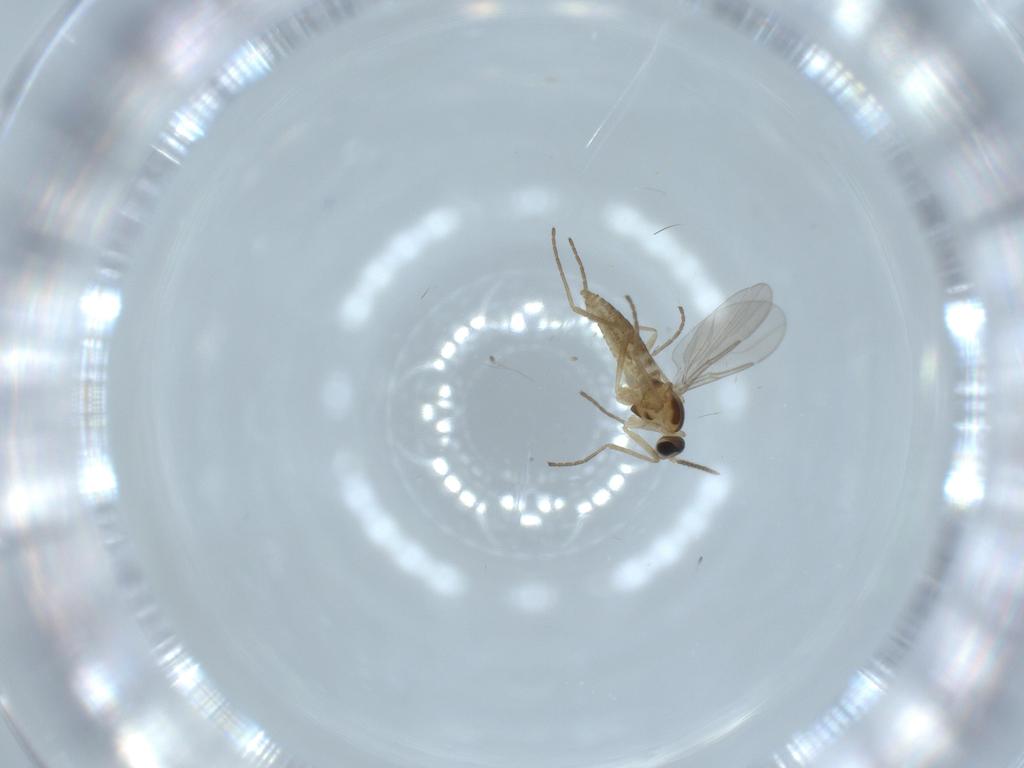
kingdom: Animalia
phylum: Arthropoda
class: Insecta
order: Diptera
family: Cecidomyiidae
